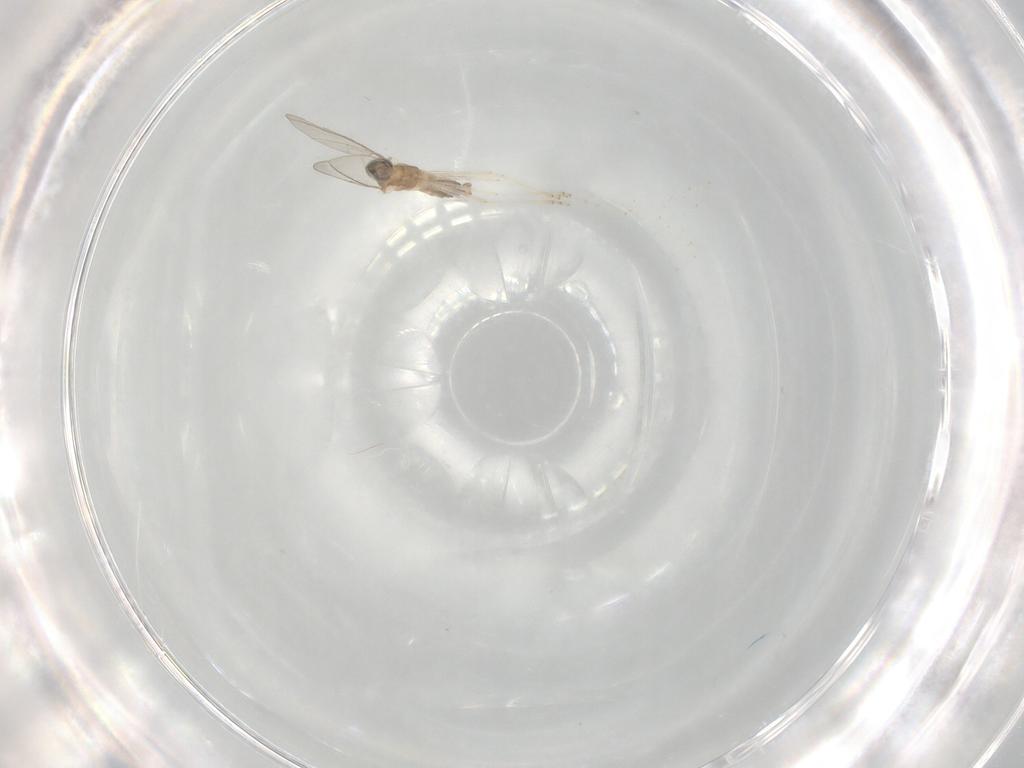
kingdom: Animalia
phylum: Arthropoda
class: Insecta
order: Diptera
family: Cecidomyiidae
